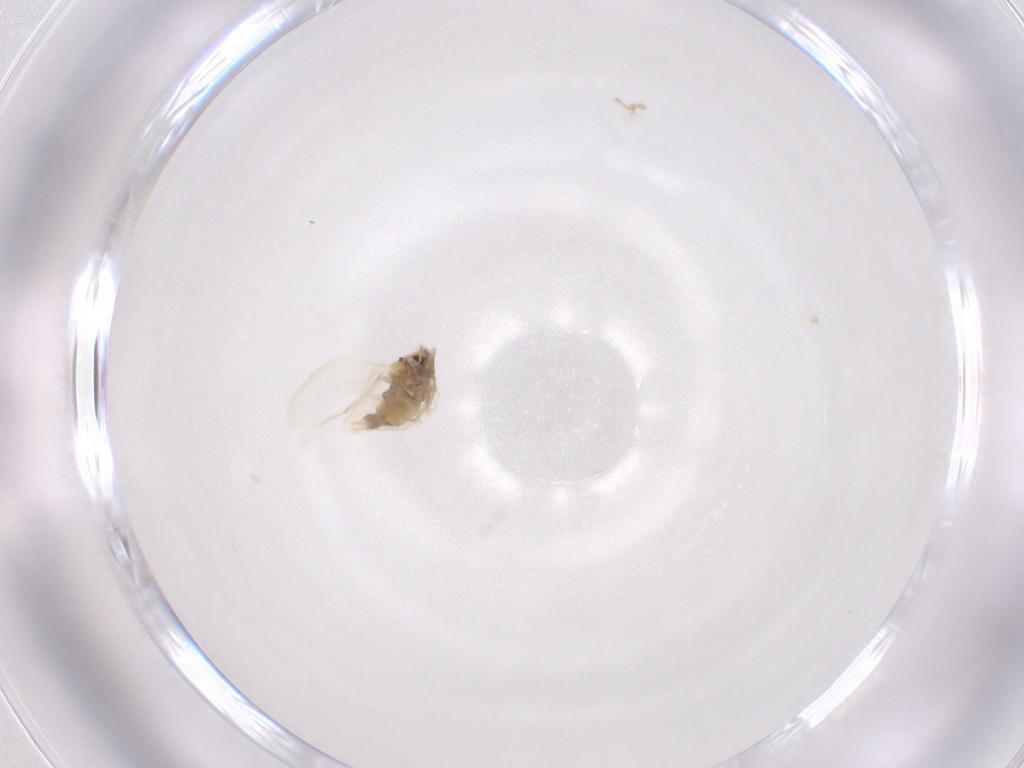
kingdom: Animalia
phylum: Arthropoda
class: Insecta
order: Hemiptera
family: Aleyrodidae
